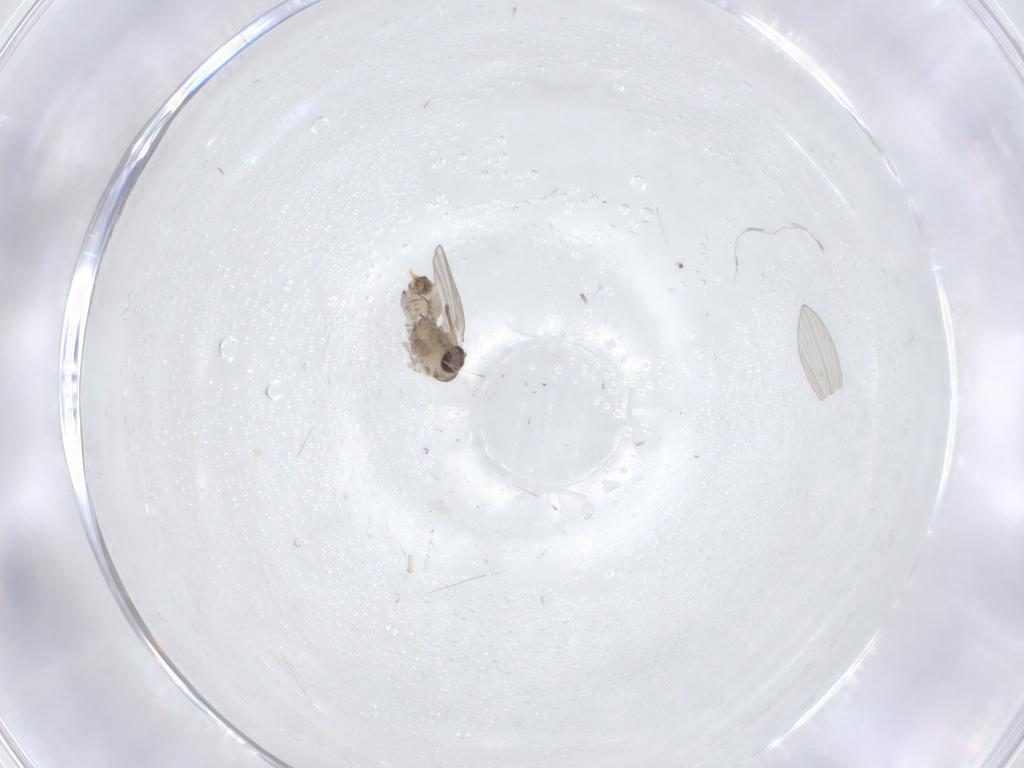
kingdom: Animalia
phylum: Arthropoda
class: Insecta
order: Diptera
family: Psychodidae
